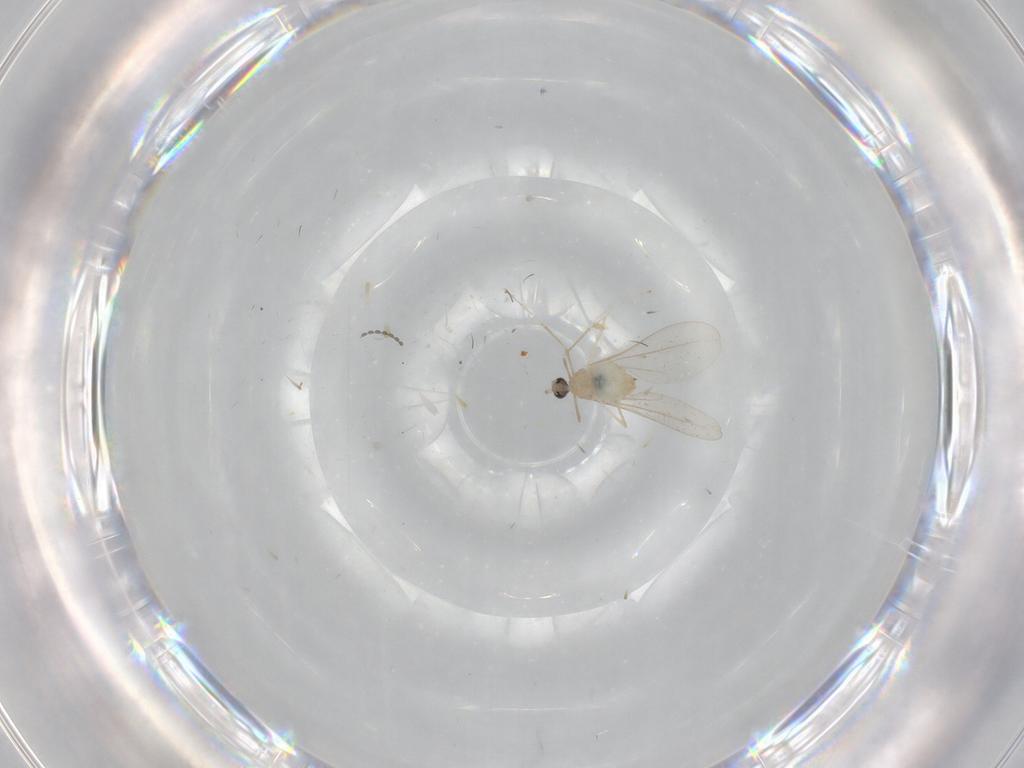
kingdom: Animalia
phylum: Arthropoda
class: Insecta
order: Diptera
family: Cecidomyiidae
